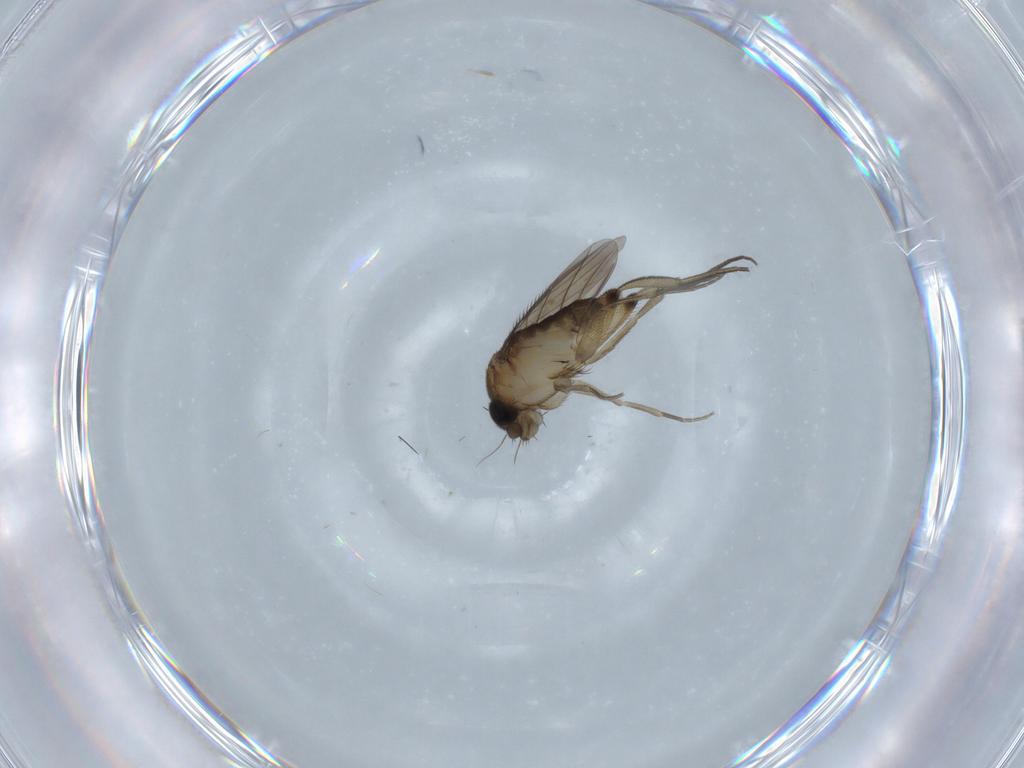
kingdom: Animalia
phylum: Arthropoda
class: Insecta
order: Diptera
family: Phoridae
